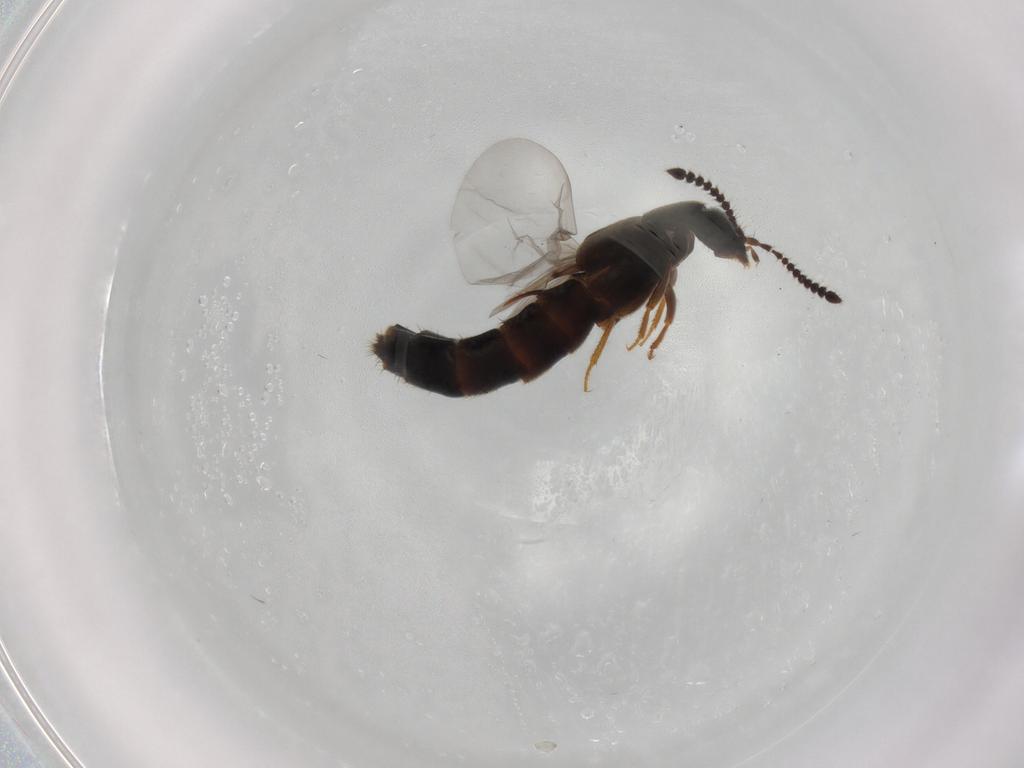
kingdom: Animalia
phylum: Arthropoda
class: Insecta
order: Coleoptera
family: Staphylinidae
